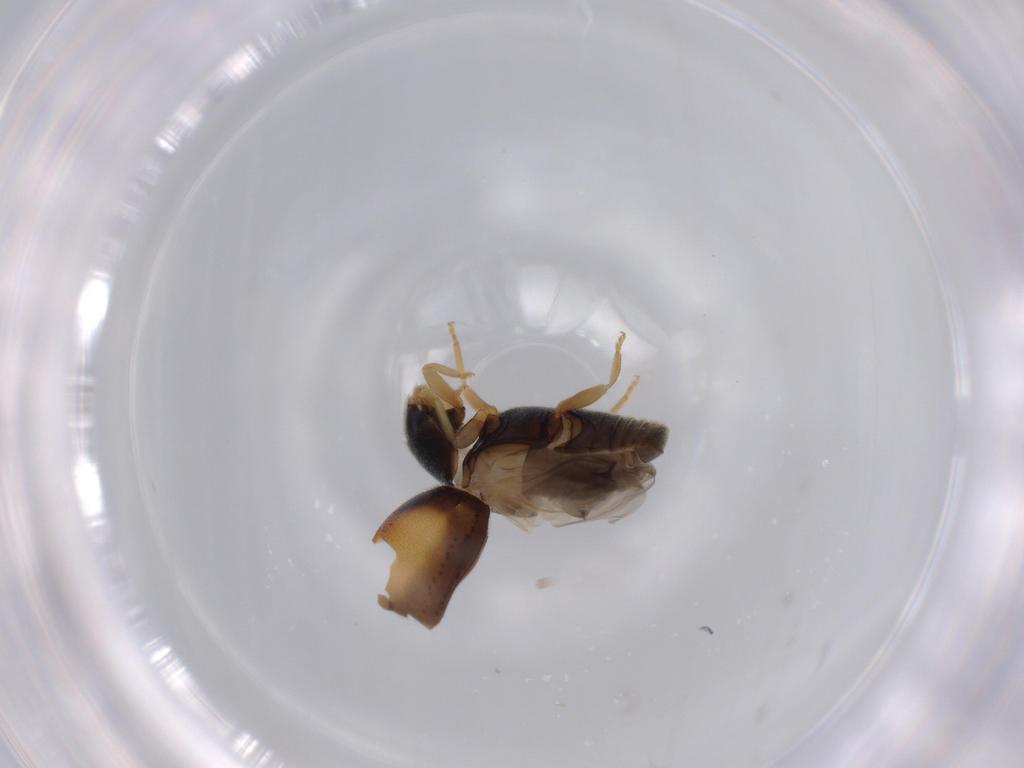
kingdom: Animalia
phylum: Arthropoda
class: Insecta
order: Coleoptera
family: Coccinellidae
